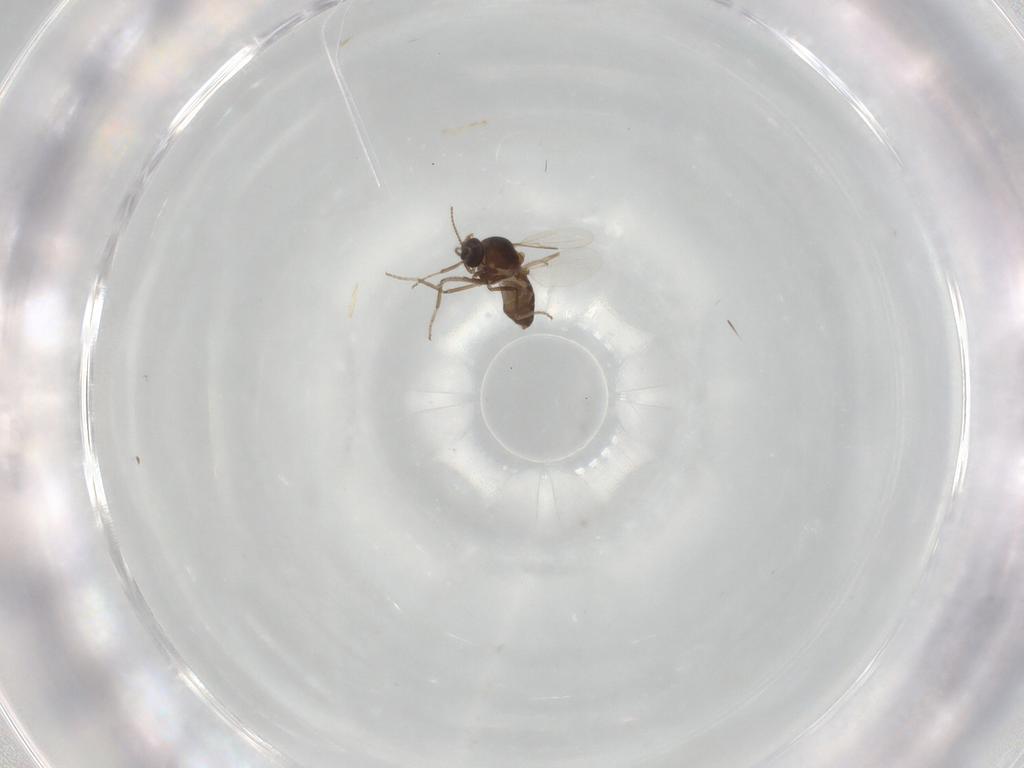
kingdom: Animalia
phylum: Arthropoda
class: Insecta
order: Diptera
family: Ceratopogonidae
